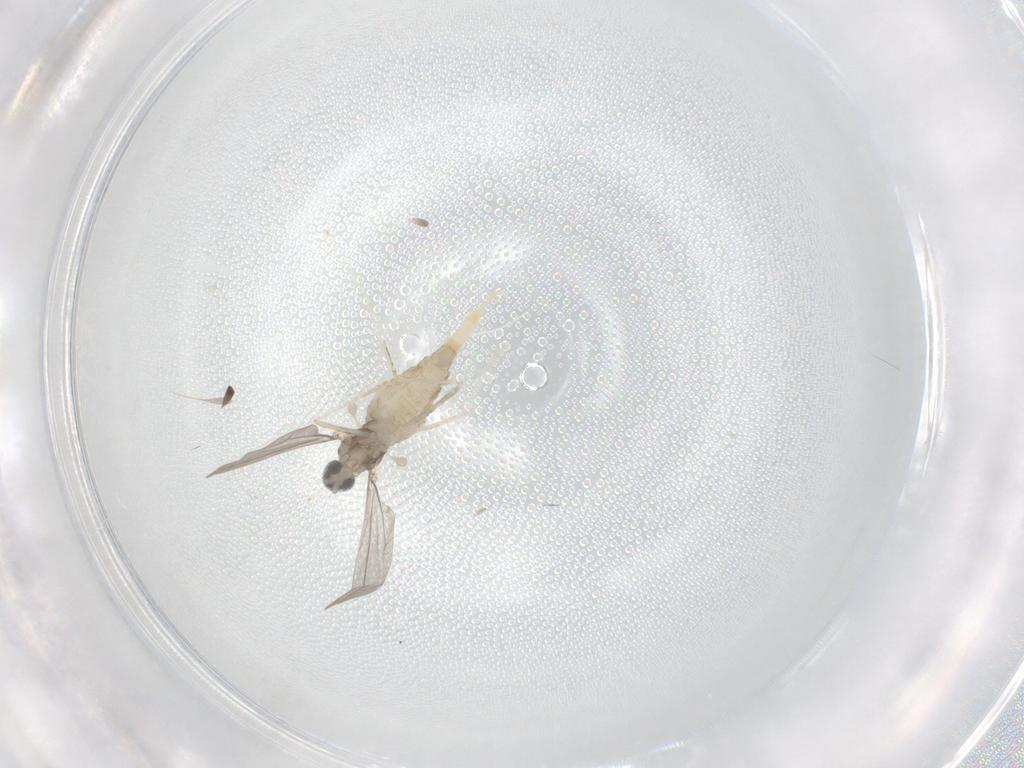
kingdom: Animalia
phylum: Arthropoda
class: Insecta
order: Diptera
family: Cecidomyiidae
